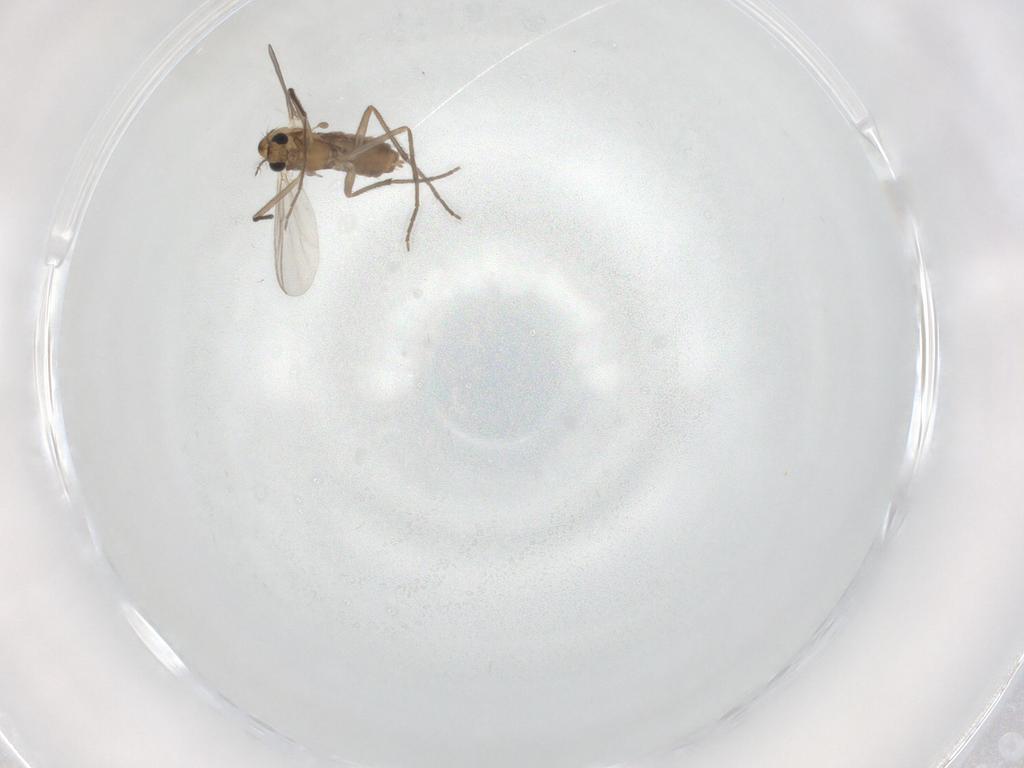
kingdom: Animalia
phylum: Arthropoda
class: Insecta
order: Diptera
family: Chironomidae
